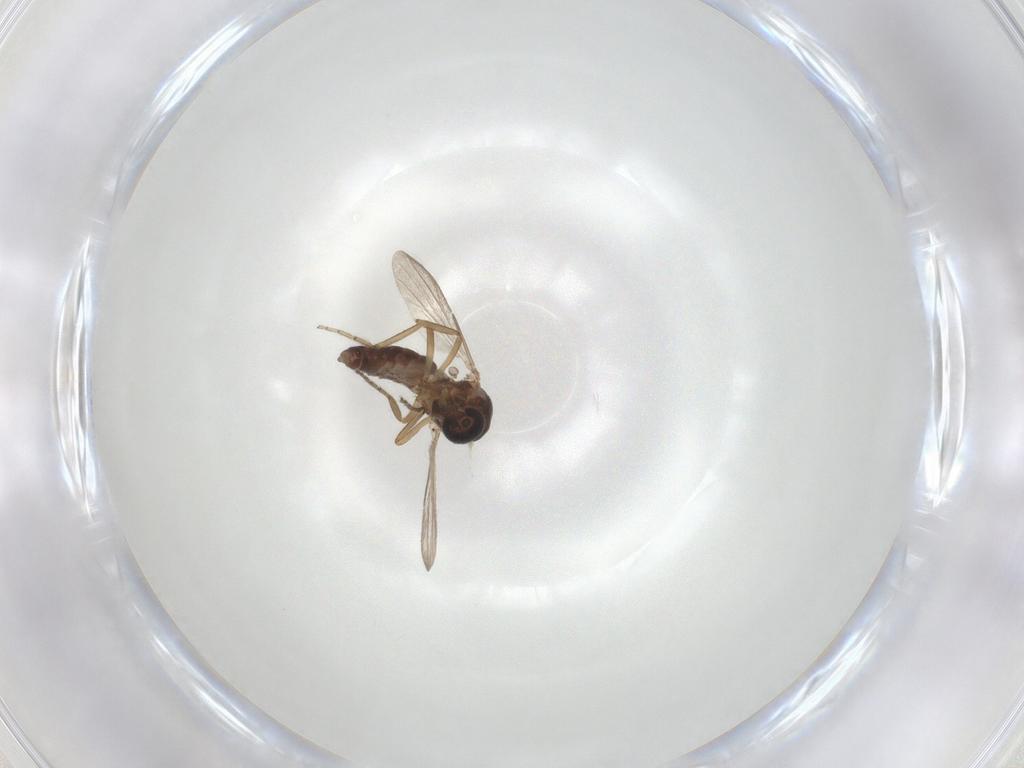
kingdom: Animalia
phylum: Arthropoda
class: Insecta
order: Diptera
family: Ceratopogonidae
